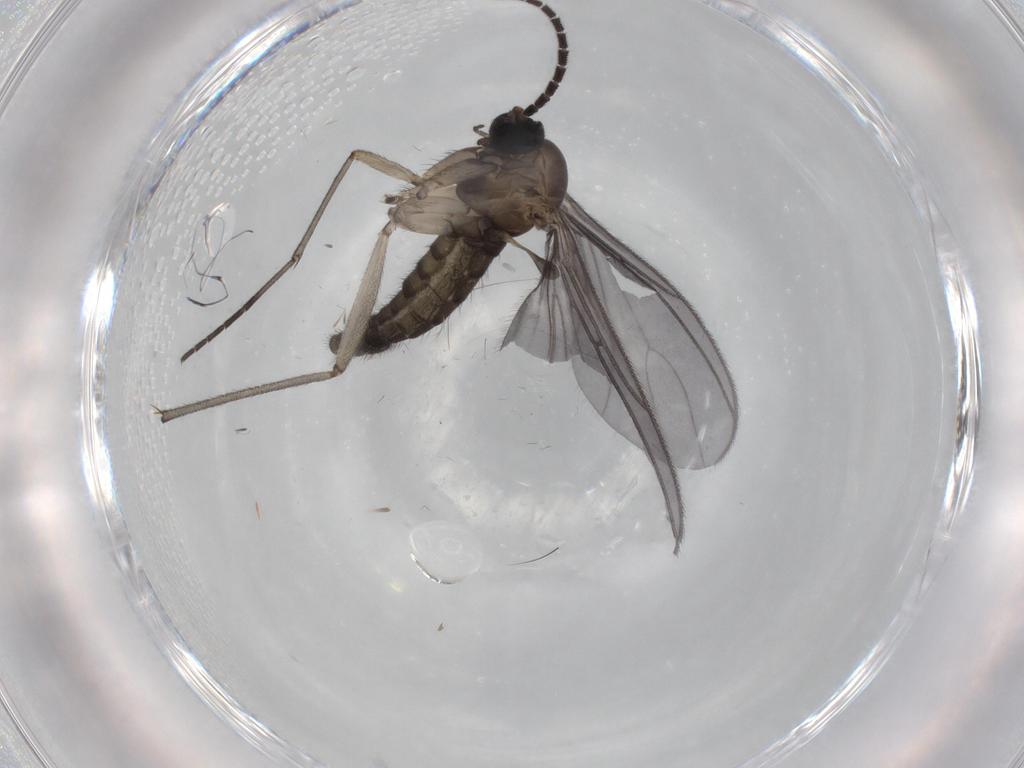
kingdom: Animalia
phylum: Arthropoda
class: Insecta
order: Diptera
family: Sciaridae
